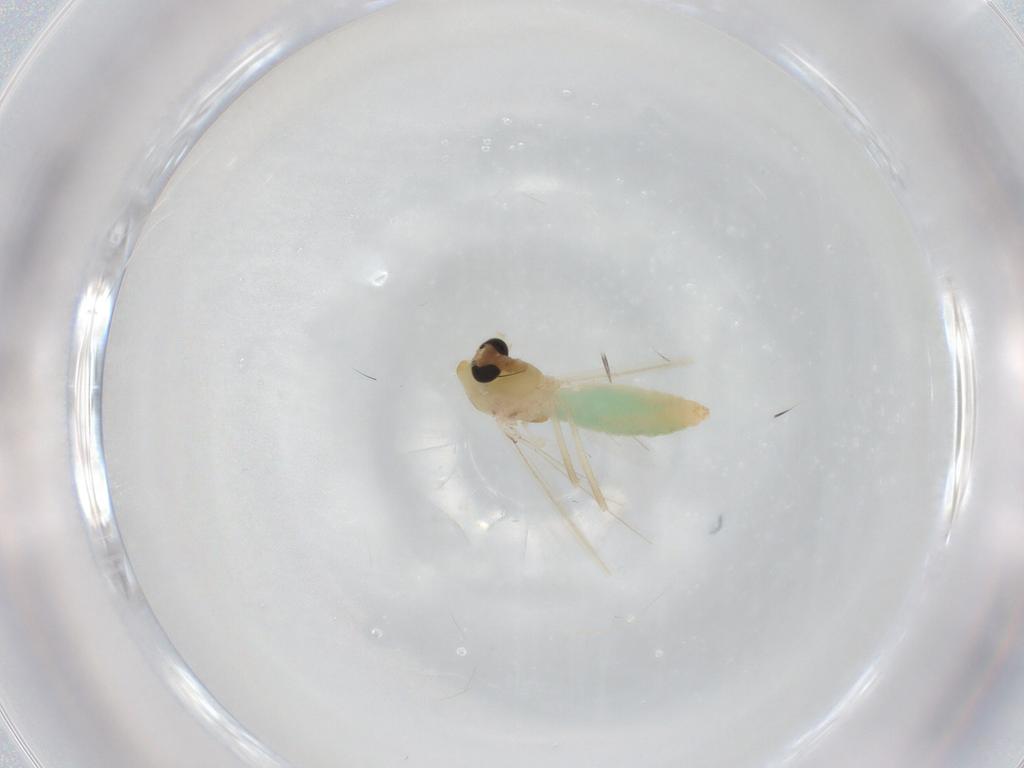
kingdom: Animalia
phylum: Arthropoda
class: Insecta
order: Diptera
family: Chironomidae
